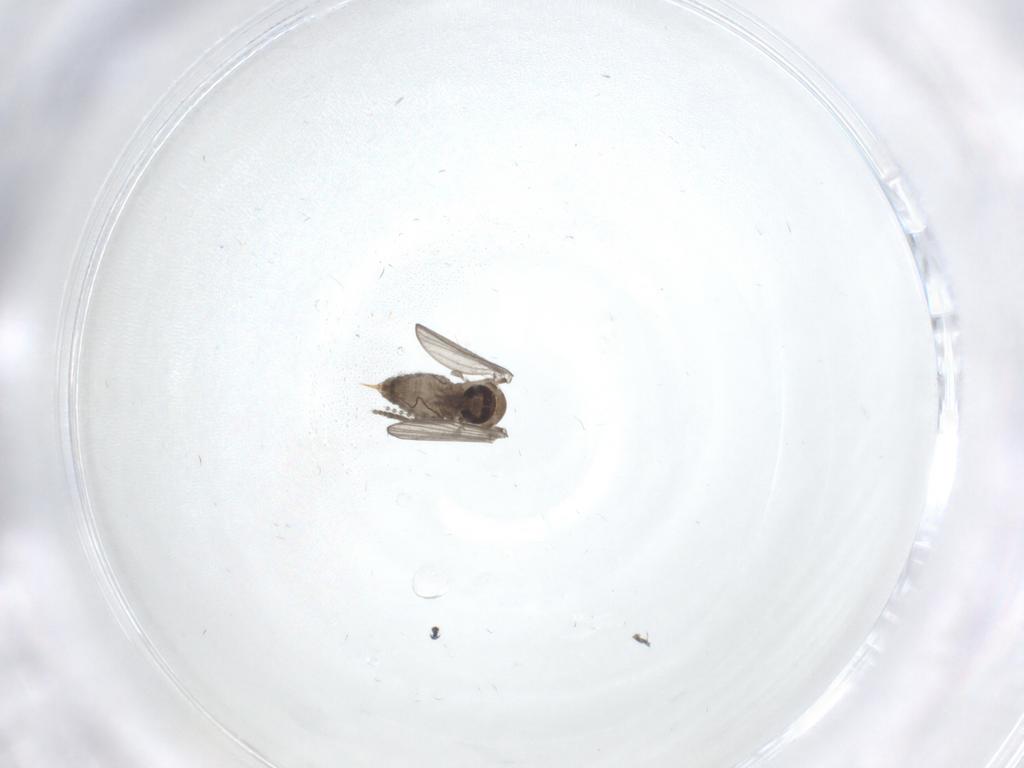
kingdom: Animalia
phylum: Arthropoda
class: Insecta
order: Diptera
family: Psychodidae
